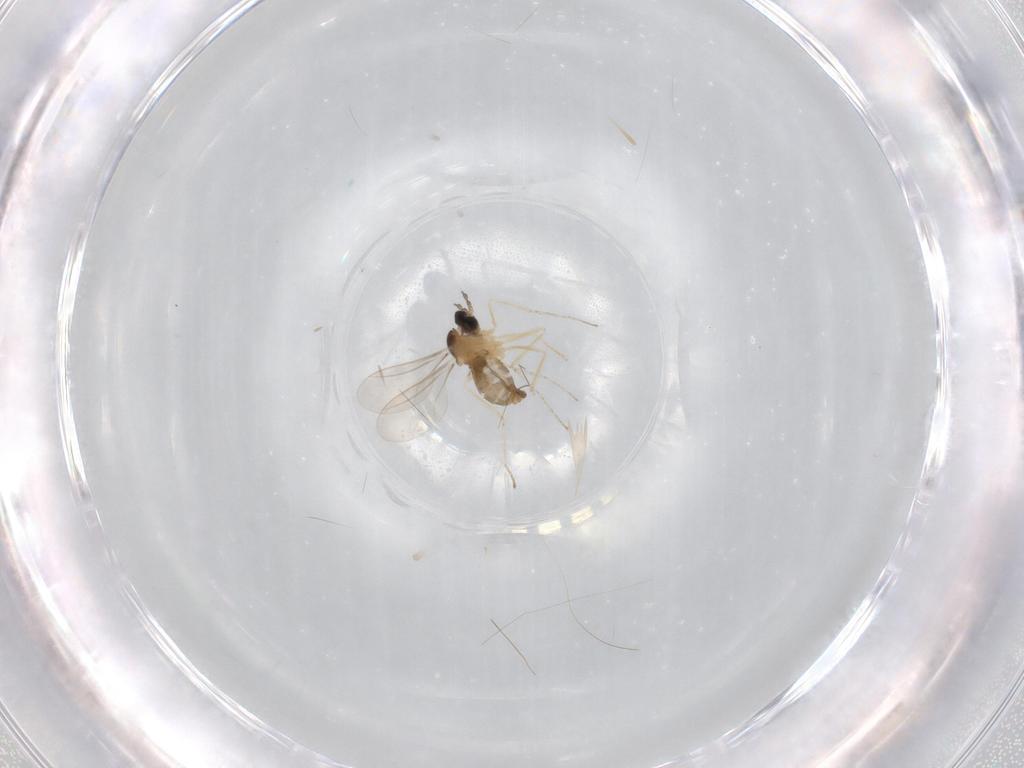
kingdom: Animalia
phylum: Arthropoda
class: Insecta
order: Diptera
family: Cecidomyiidae
